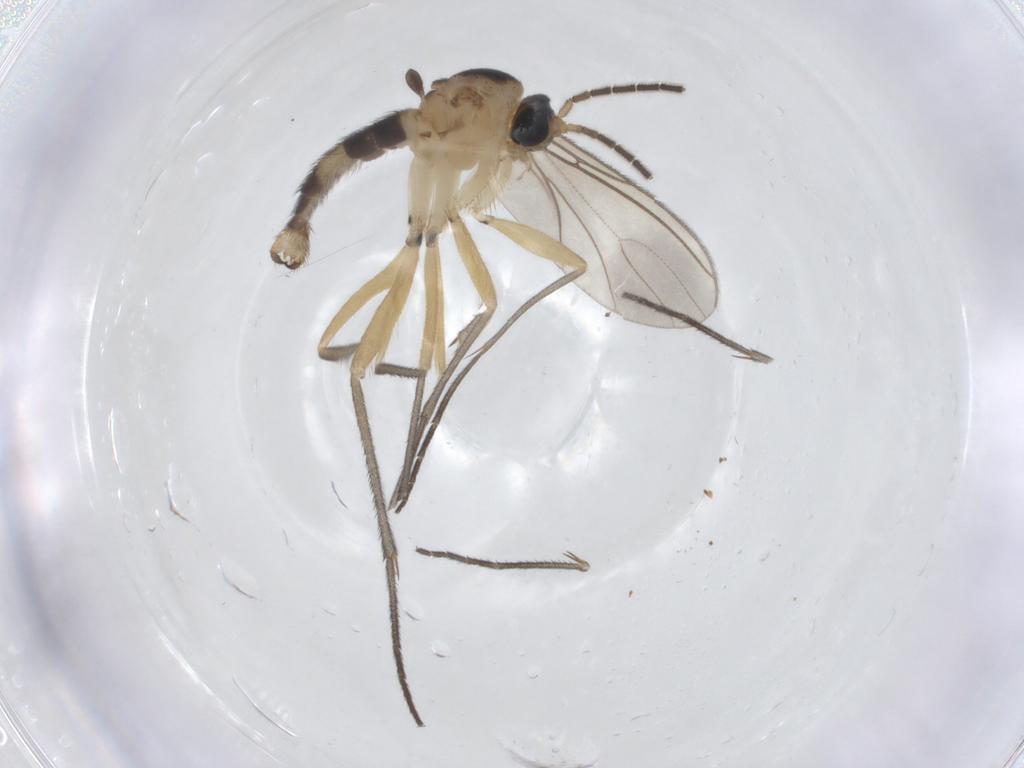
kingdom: Animalia
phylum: Arthropoda
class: Insecta
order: Diptera
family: Sciaridae
